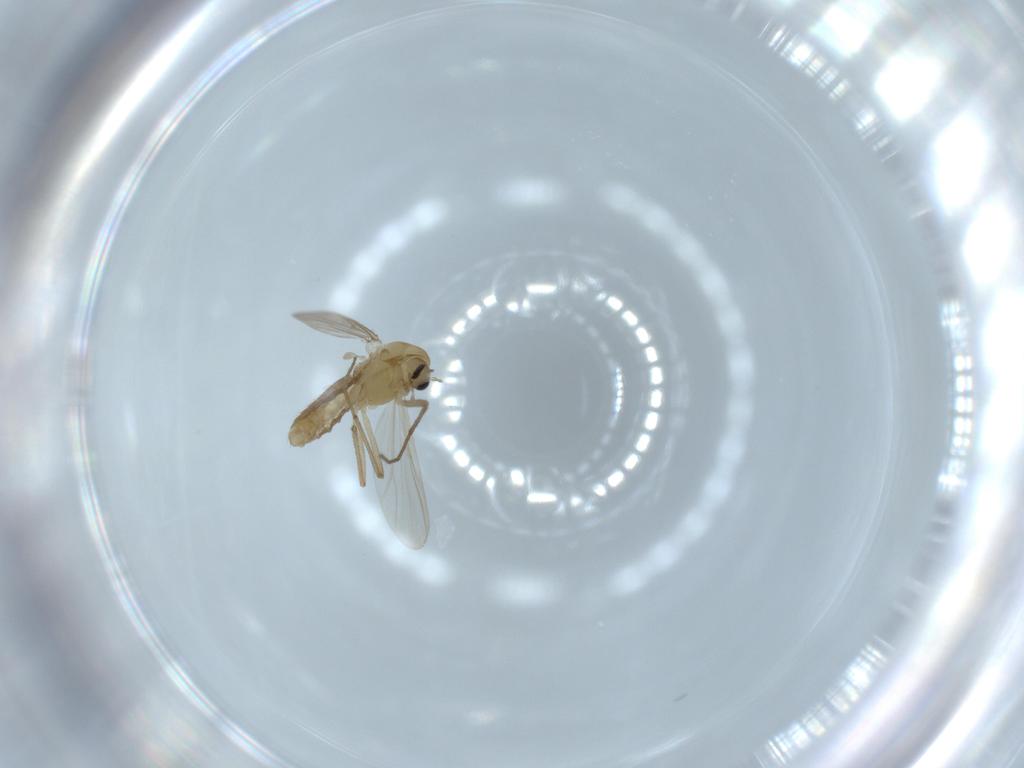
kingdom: Animalia
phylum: Arthropoda
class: Insecta
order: Diptera
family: Chironomidae
